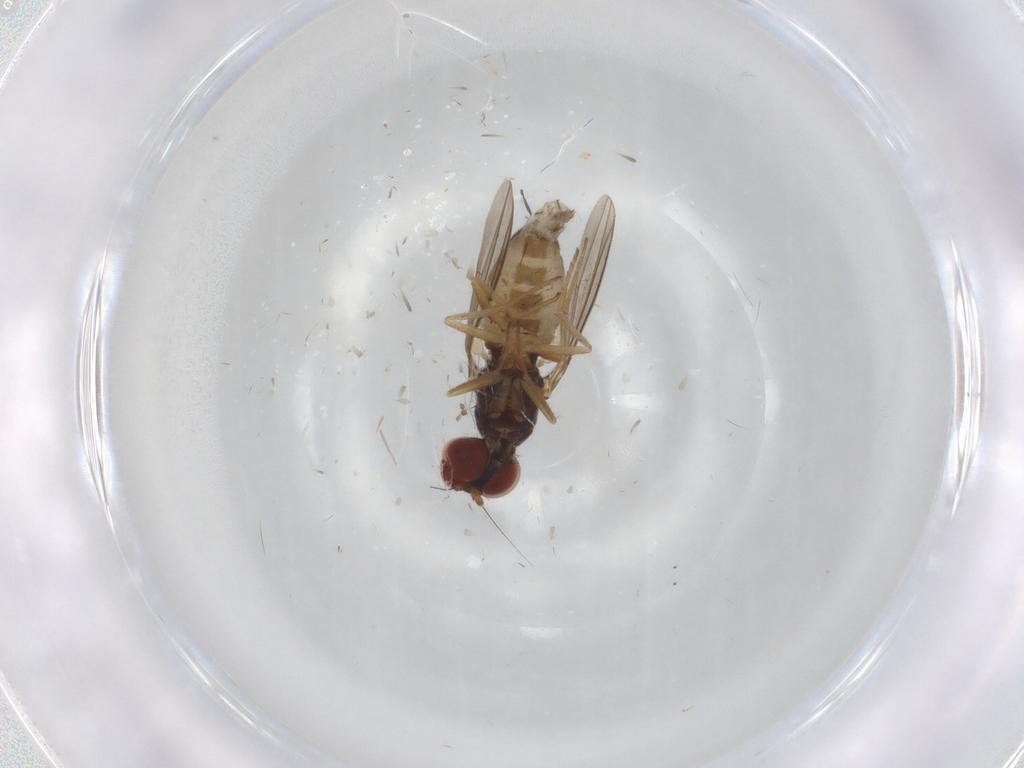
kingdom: Animalia
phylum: Arthropoda
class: Insecta
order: Diptera
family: Dolichopodidae
